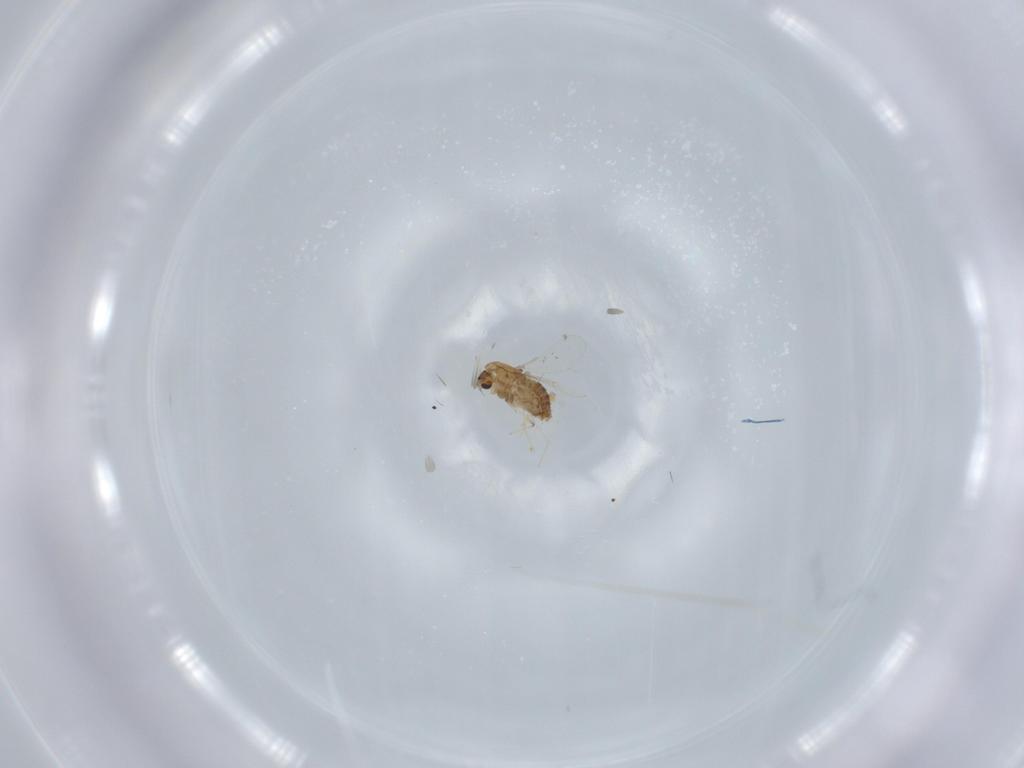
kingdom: Animalia
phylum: Arthropoda
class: Insecta
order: Diptera
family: Chironomidae
